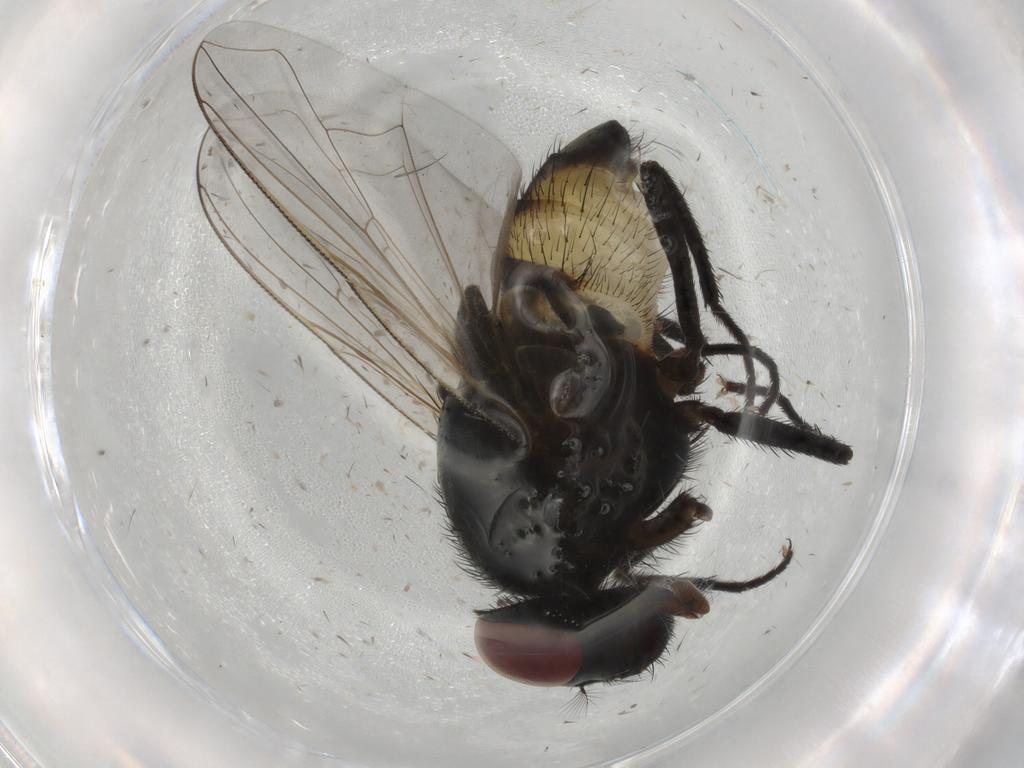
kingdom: Animalia
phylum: Arthropoda
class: Insecta
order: Diptera
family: Muscidae
